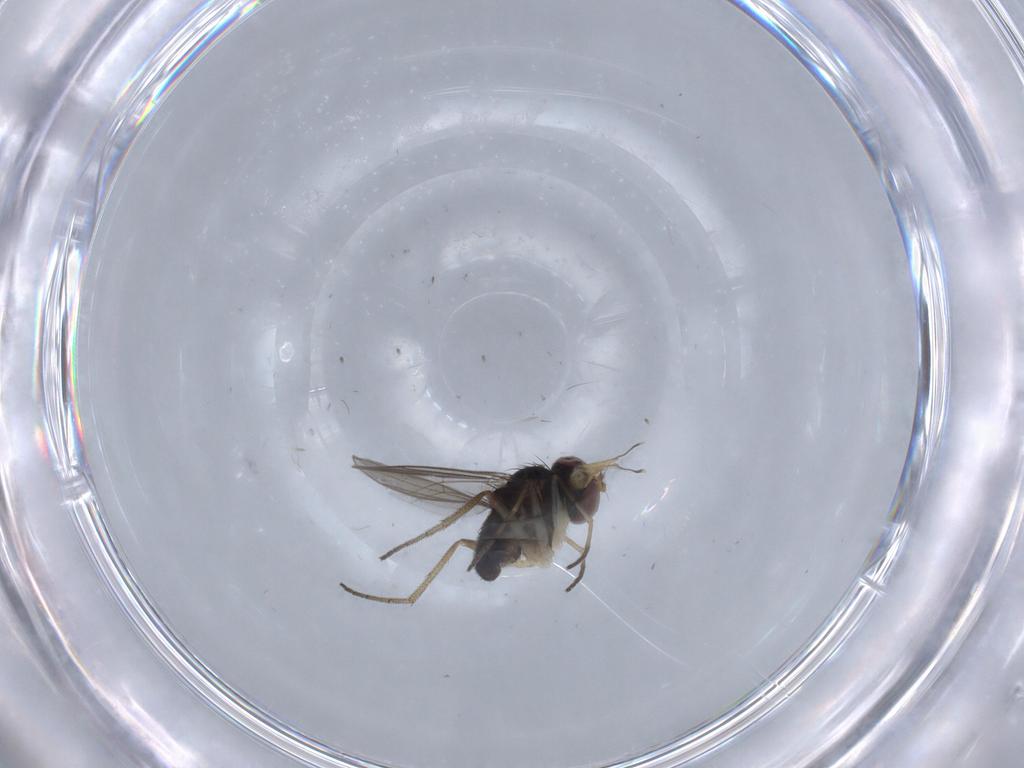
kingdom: Animalia
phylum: Arthropoda
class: Insecta
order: Diptera
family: Dolichopodidae
